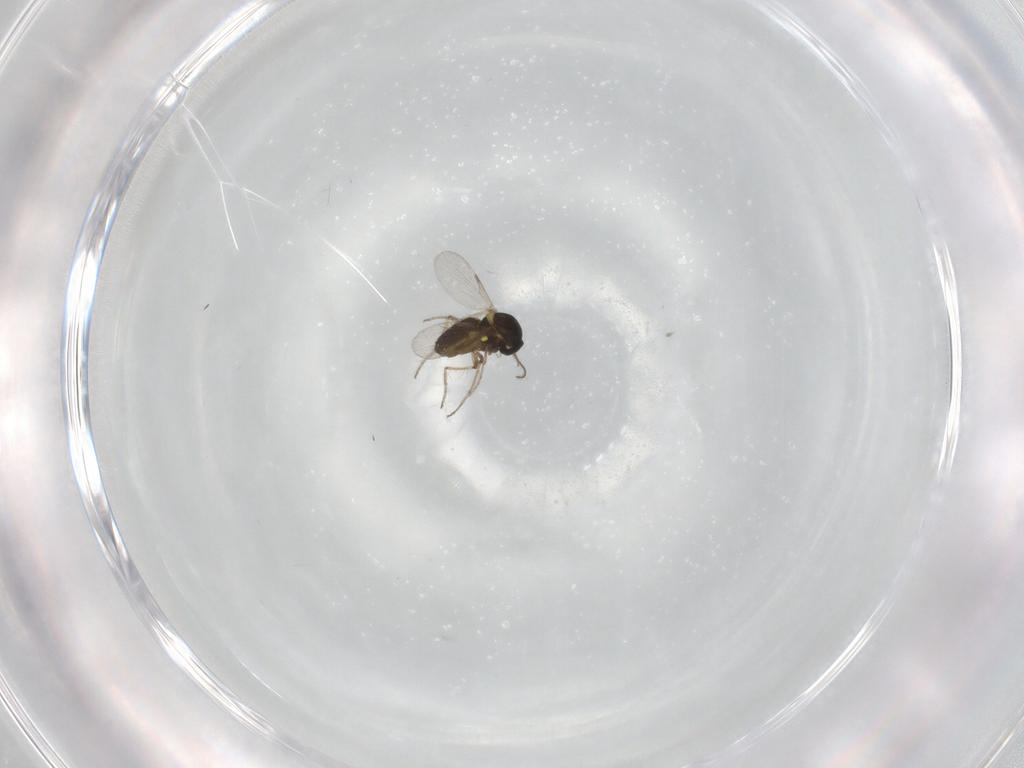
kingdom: Animalia
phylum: Arthropoda
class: Insecta
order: Diptera
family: Ceratopogonidae
